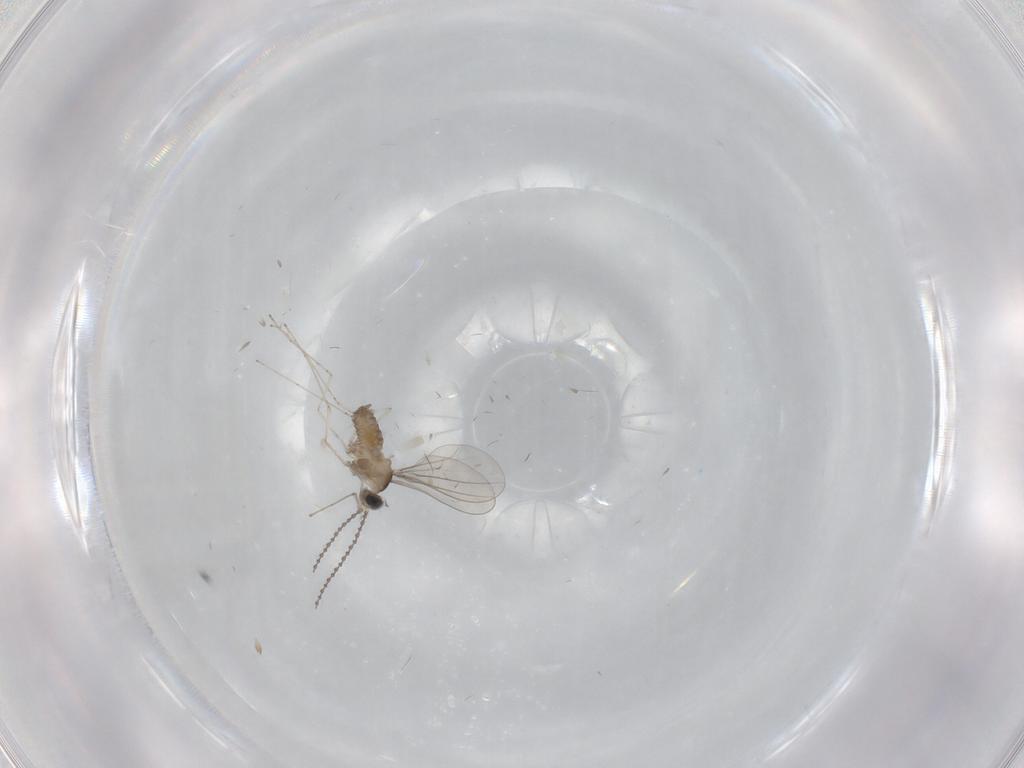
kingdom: Animalia
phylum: Arthropoda
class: Insecta
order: Diptera
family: Cecidomyiidae
